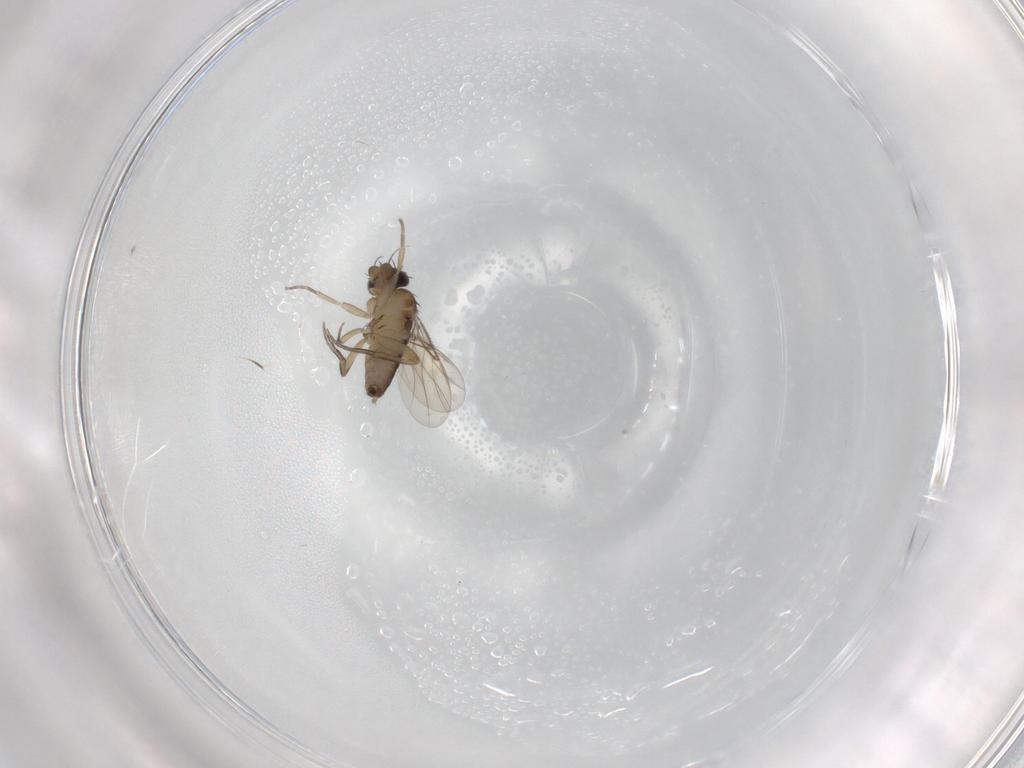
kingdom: Animalia
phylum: Arthropoda
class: Insecta
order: Diptera
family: Phoridae
